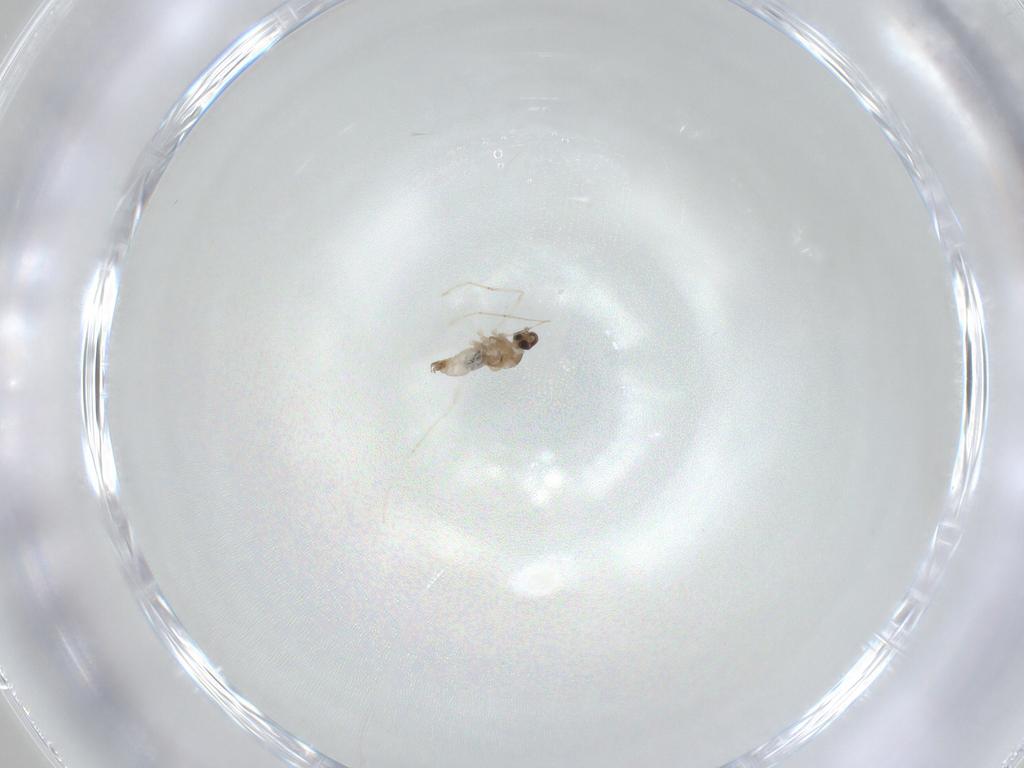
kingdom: Animalia
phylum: Arthropoda
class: Insecta
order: Diptera
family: Cecidomyiidae
